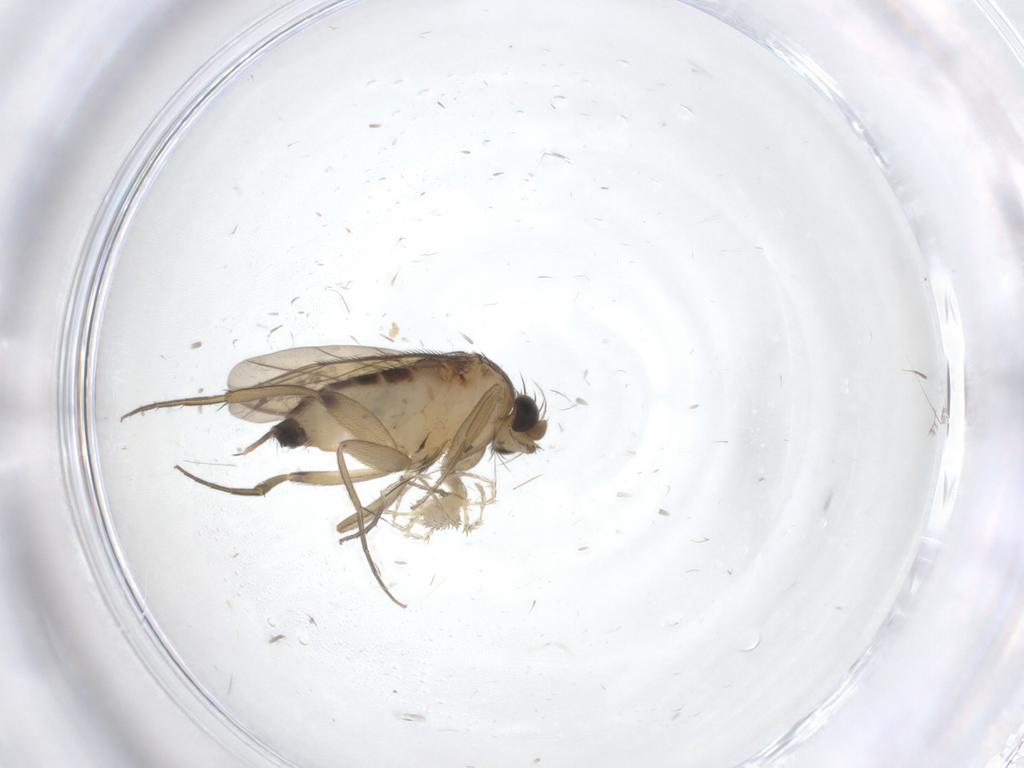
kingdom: Animalia
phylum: Arthropoda
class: Insecta
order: Diptera
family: Phoridae
